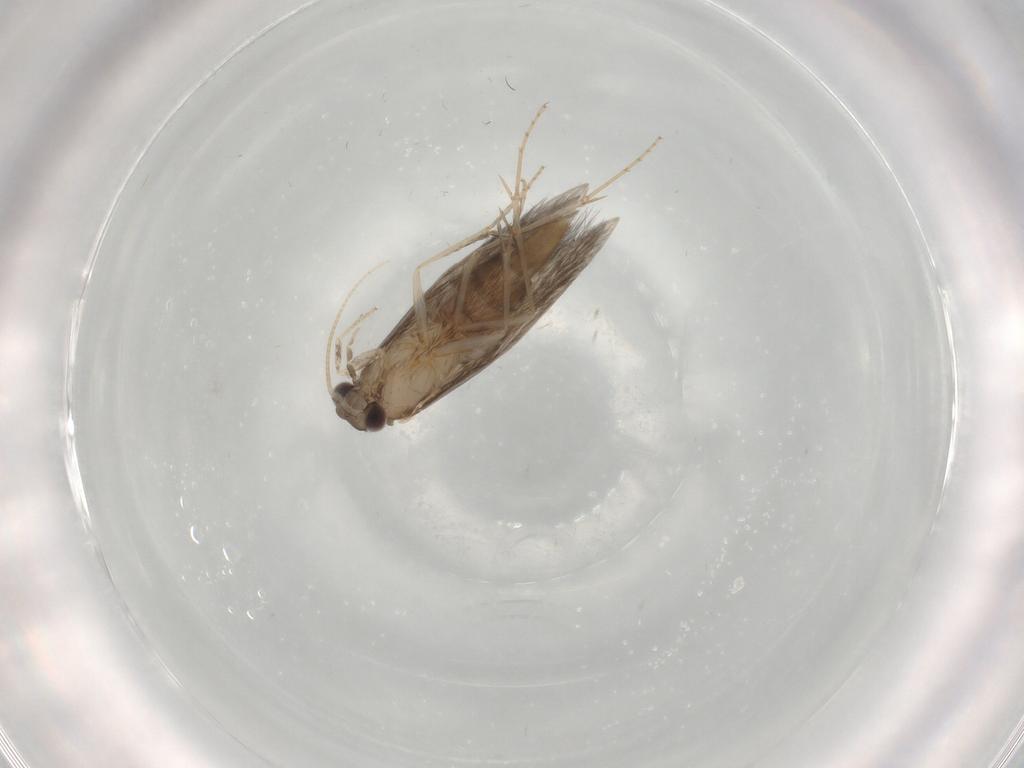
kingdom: Animalia
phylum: Arthropoda
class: Insecta
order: Trichoptera
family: Hydroptilidae
